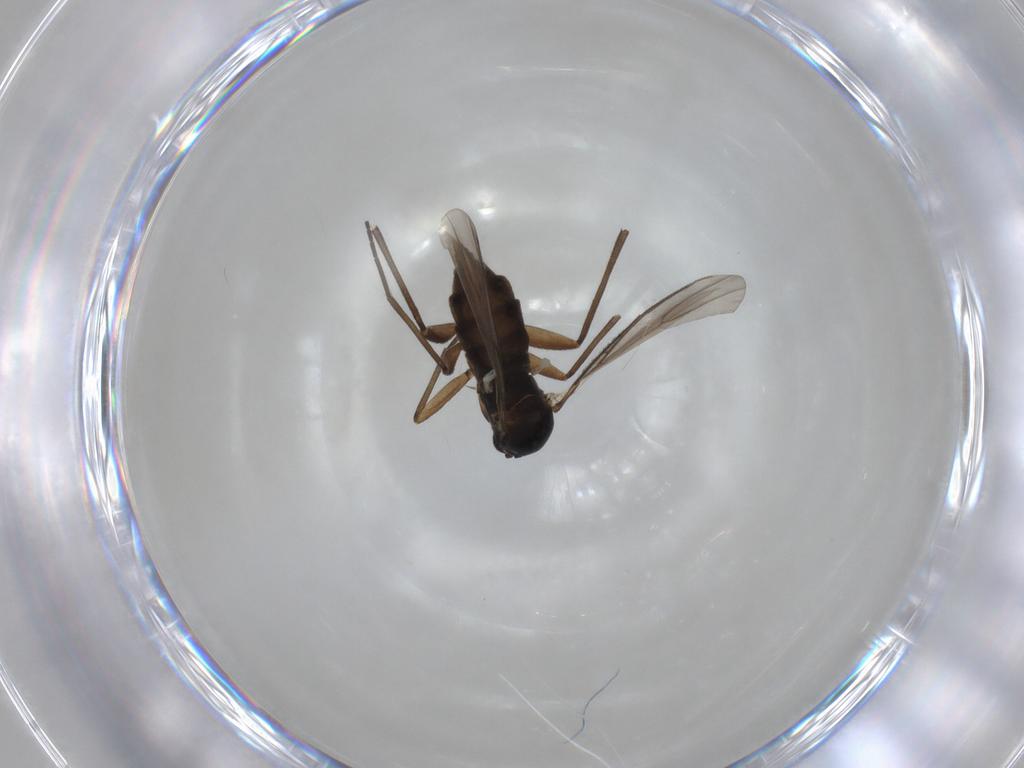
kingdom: Animalia
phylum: Arthropoda
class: Insecta
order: Diptera
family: Sciaridae
